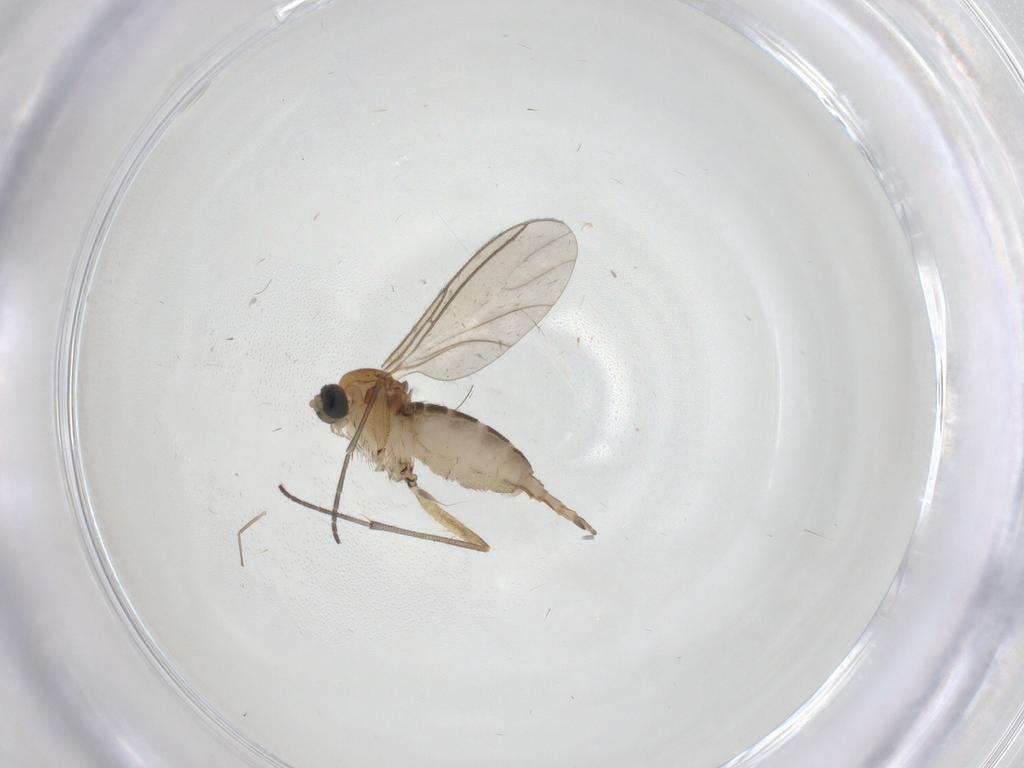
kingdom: Animalia
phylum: Arthropoda
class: Insecta
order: Diptera
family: Sciaridae
